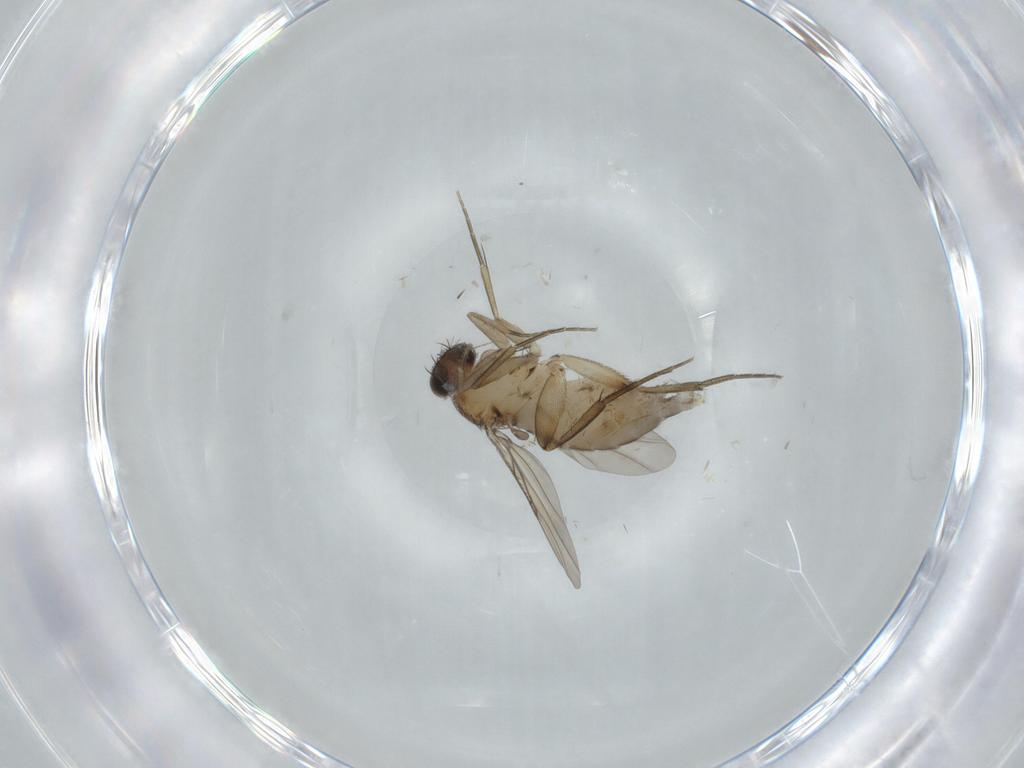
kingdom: Animalia
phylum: Arthropoda
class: Insecta
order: Diptera
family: Phoridae
